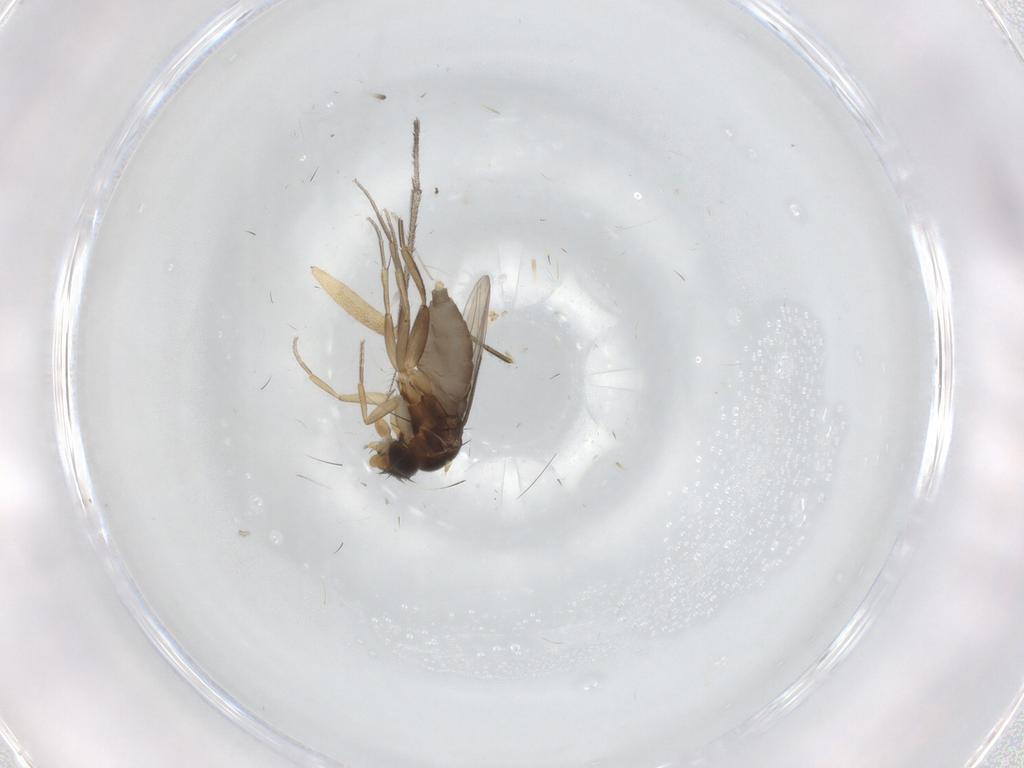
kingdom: Animalia
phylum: Arthropoda
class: Insecta
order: Diptera
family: Phoridae
